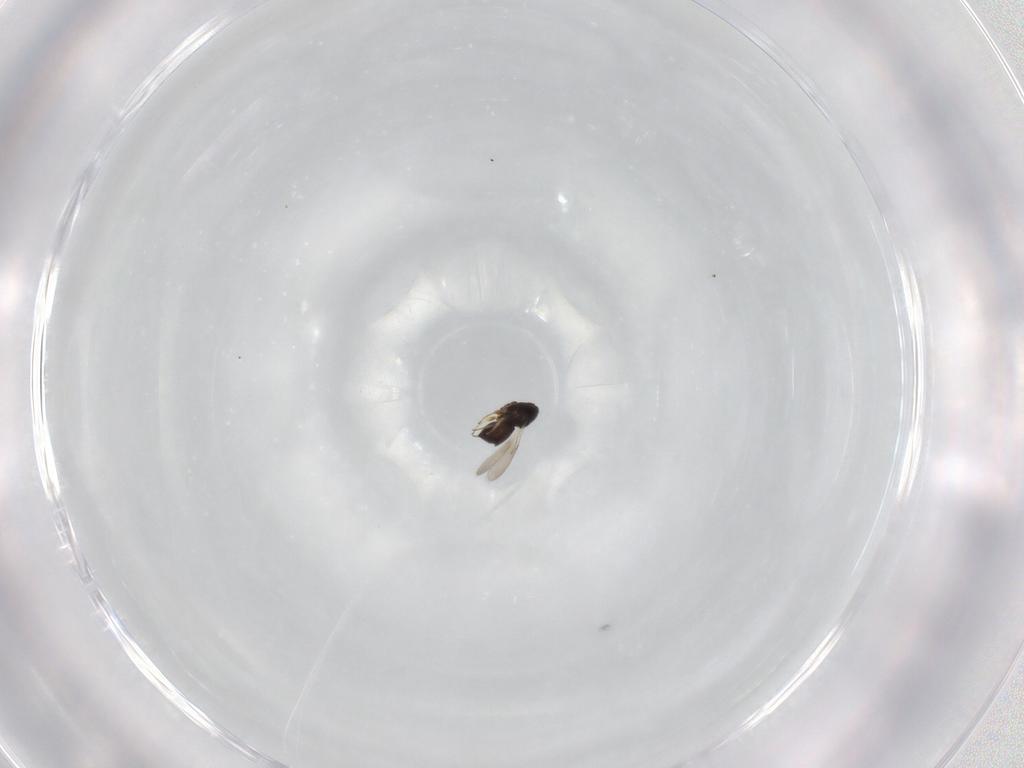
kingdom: Animalia
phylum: Arthropoda
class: Insecta
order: Hymenoptera
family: Scelionidae
